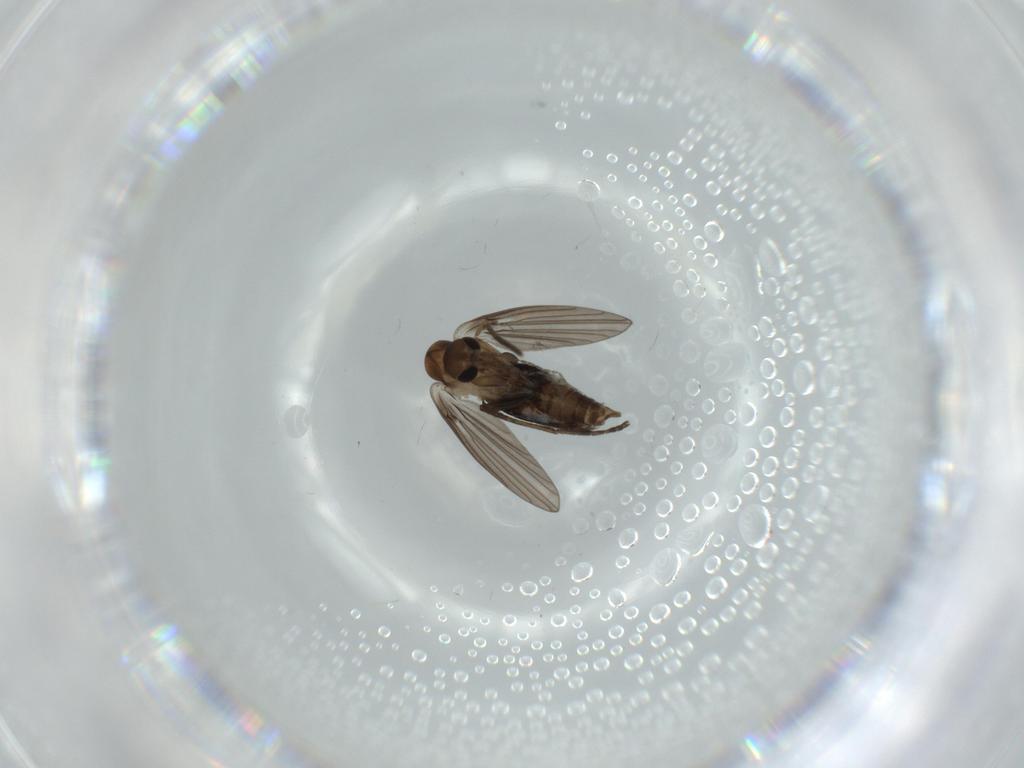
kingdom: Animalia
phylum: Arthropoda
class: Insecta
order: Diptera
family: Psychodidae
